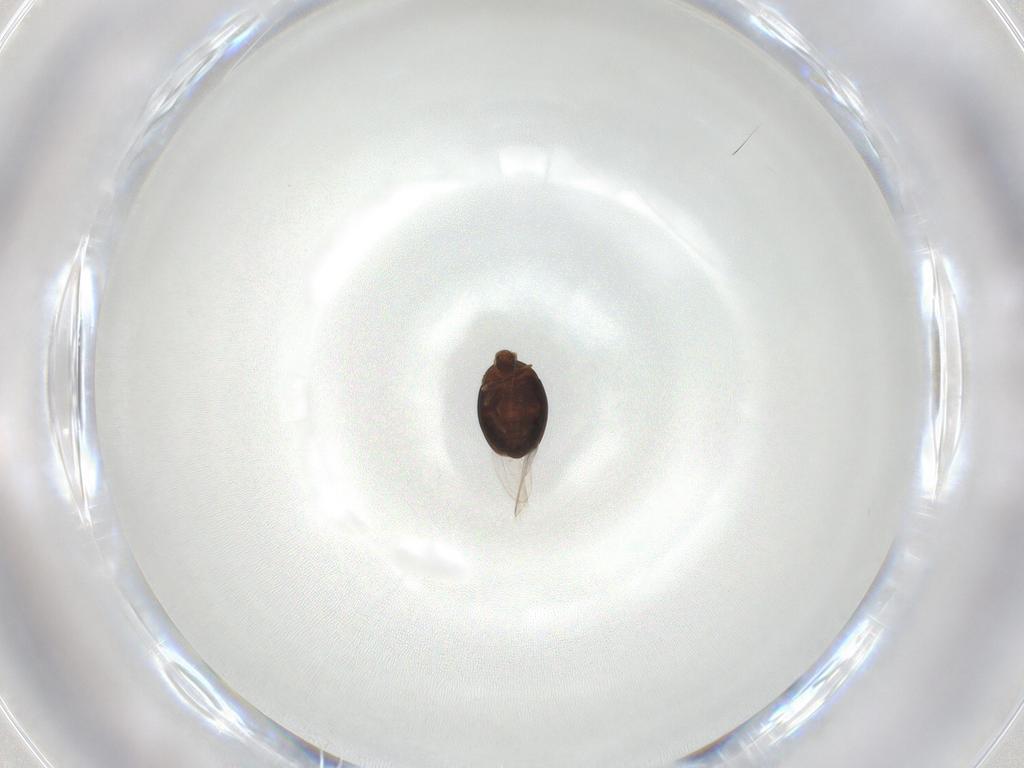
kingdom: Animalia
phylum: Arthropoda
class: Insecta
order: Coleoptera
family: Corylophidae
